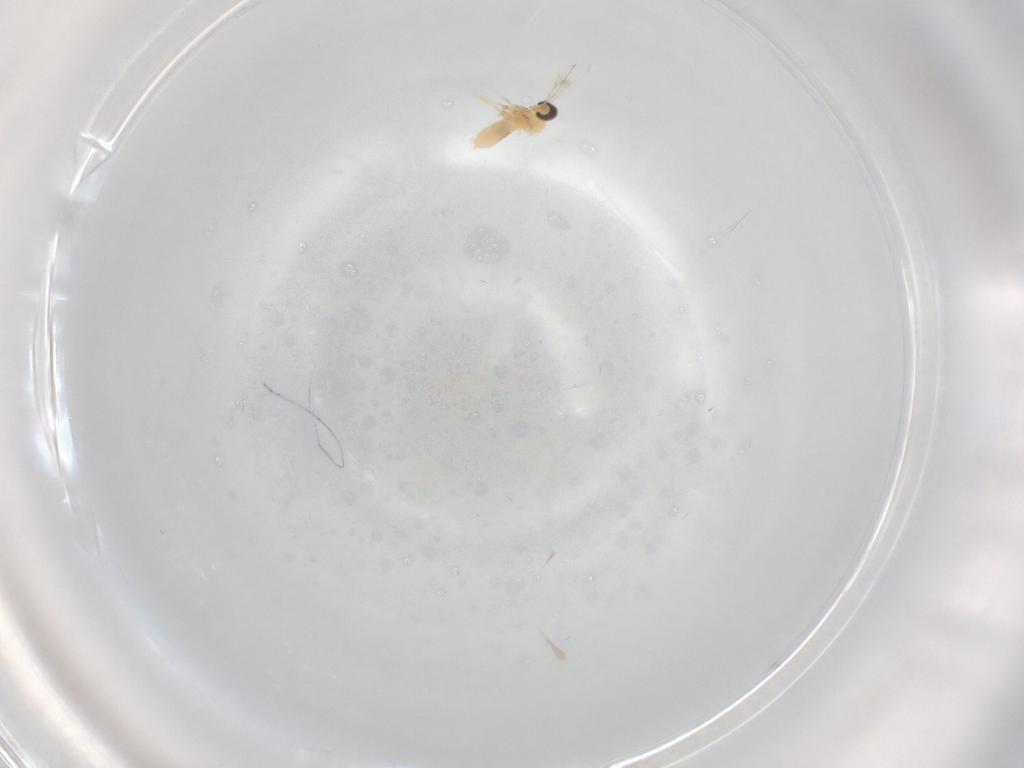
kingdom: Animalia
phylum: Arthropoda
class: Insecta
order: Diptera
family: Cecidomyiidae
